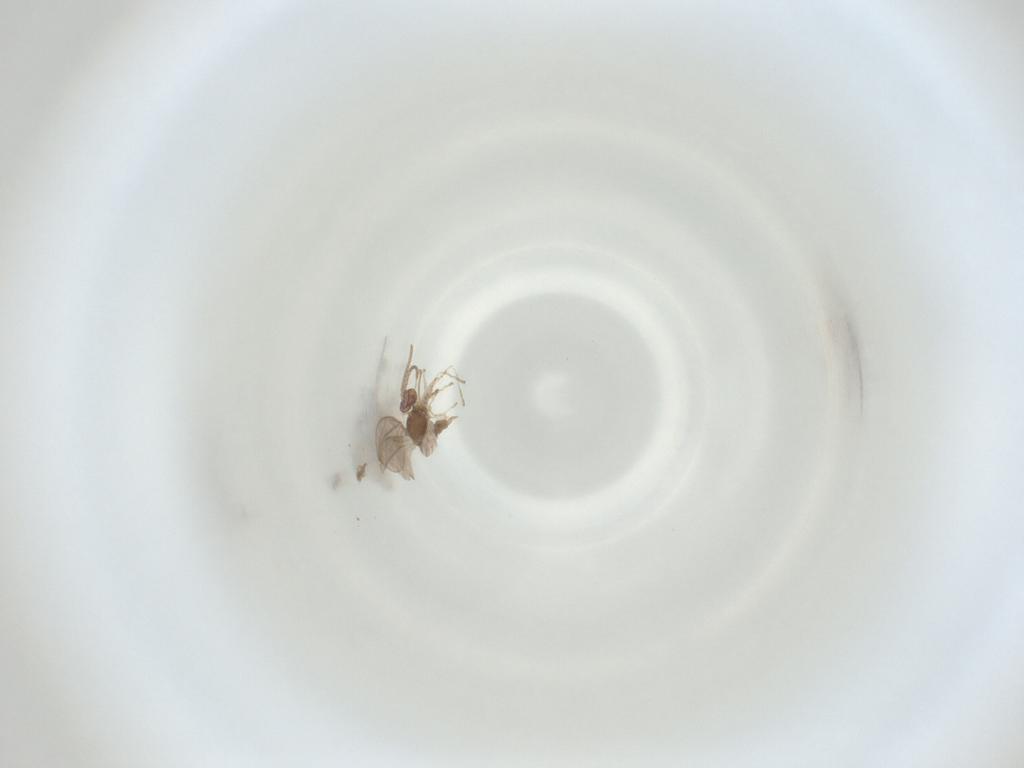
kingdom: Animalia
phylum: Arthropoda
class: Insecta
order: Diptera
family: Cecidomyiidae
